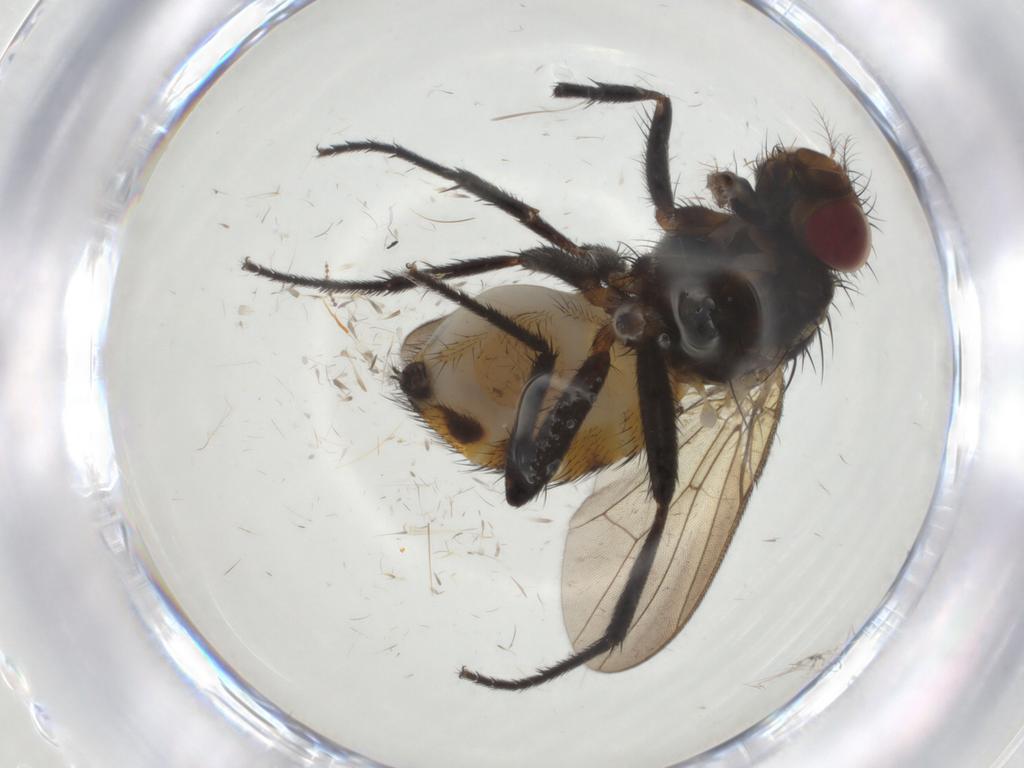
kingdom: Animalia
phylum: Arthropoda
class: Insecta
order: Diptera
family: Anthomyiidae
